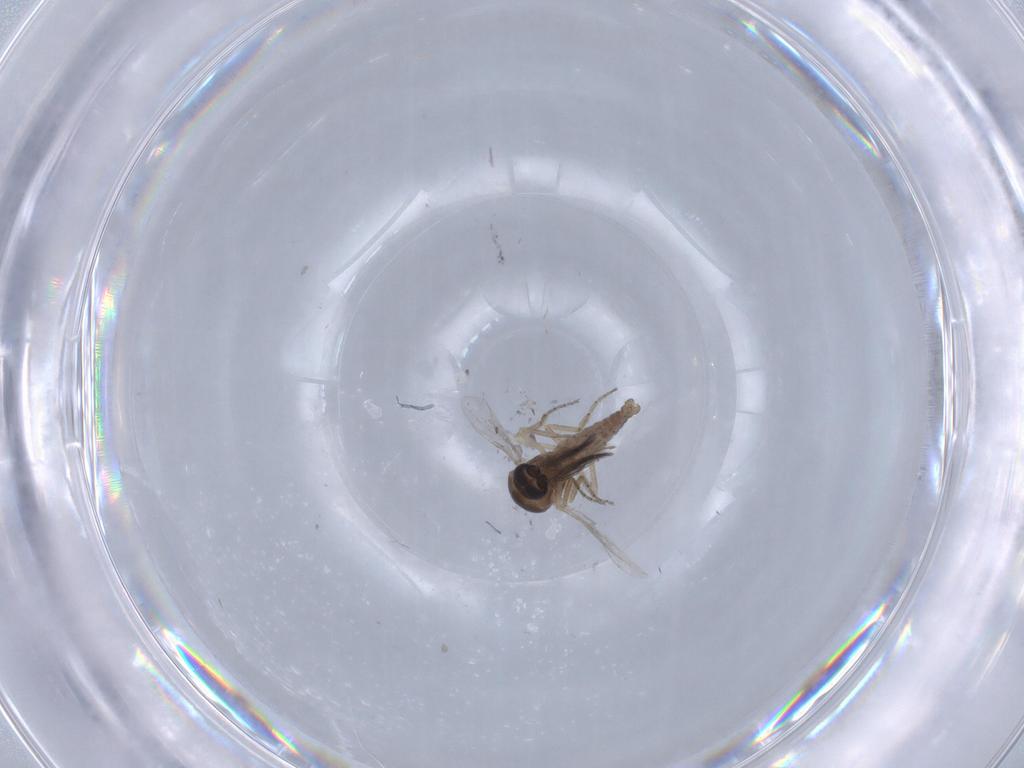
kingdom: Animalia
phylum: Arthropoda
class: Insecta
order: Diptera
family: Ceratopogonidae
